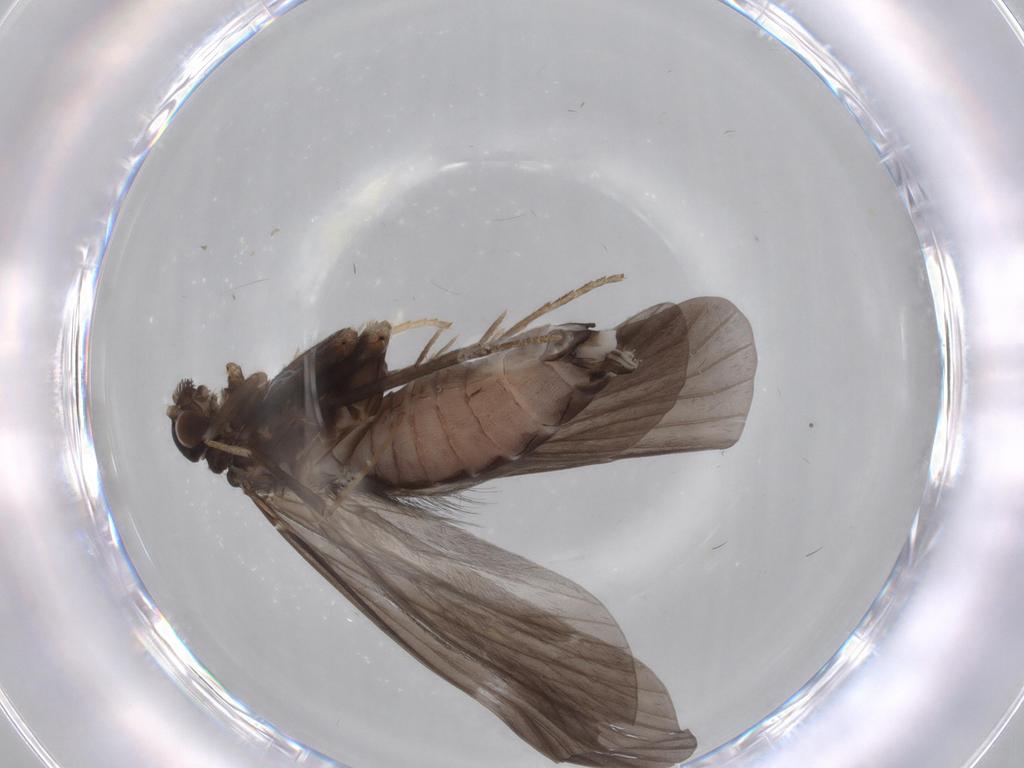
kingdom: Animalia
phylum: Arthropoda
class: Insecta
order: Trichoptera
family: Hydropsychidae
